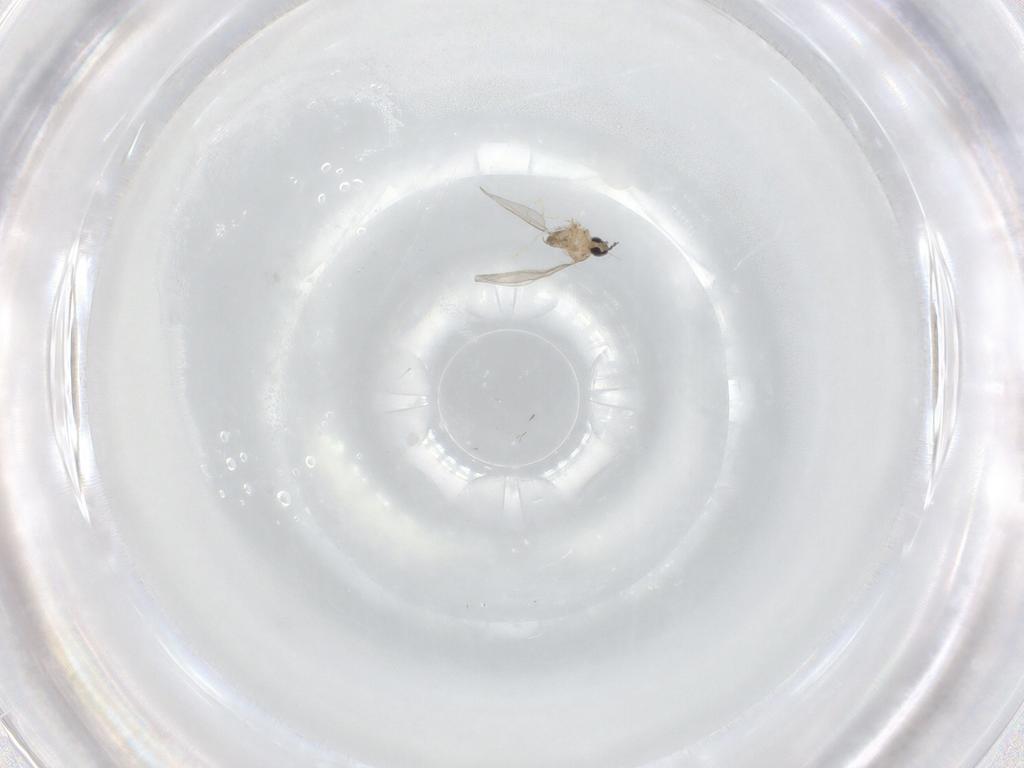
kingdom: Animalia
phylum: Arthropoda
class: Insecta
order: Diptera
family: Cecidomyiidae
